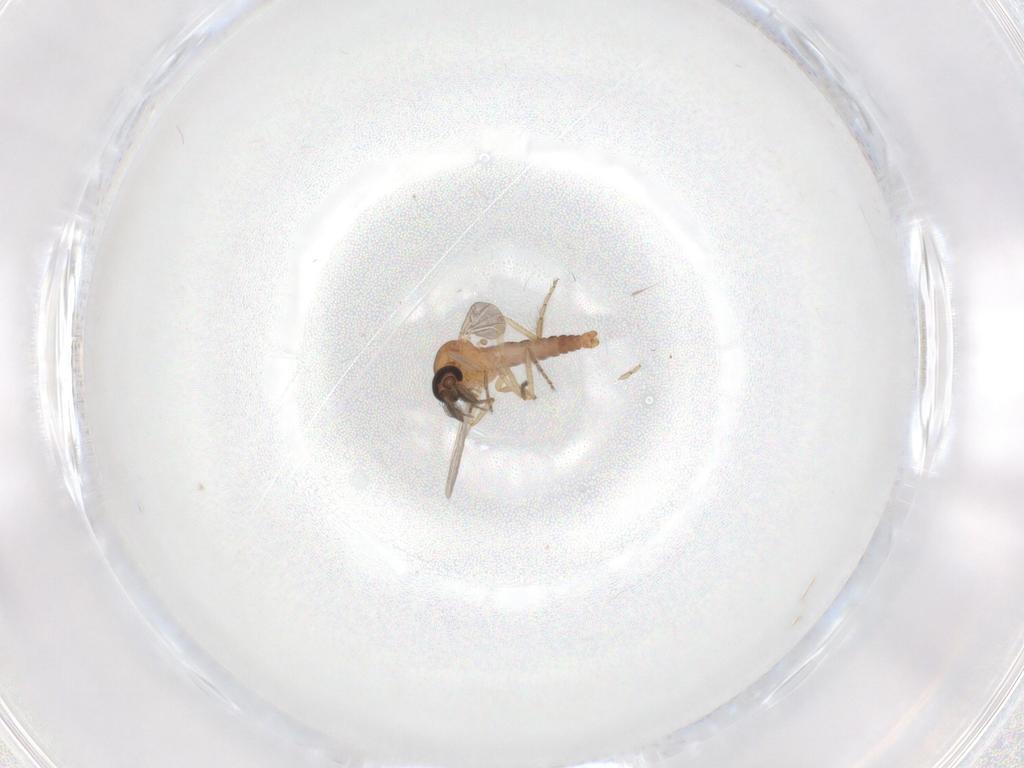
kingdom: Animalia
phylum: Arthropoda
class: Insecta
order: Diptera
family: Ceratopogonidae
